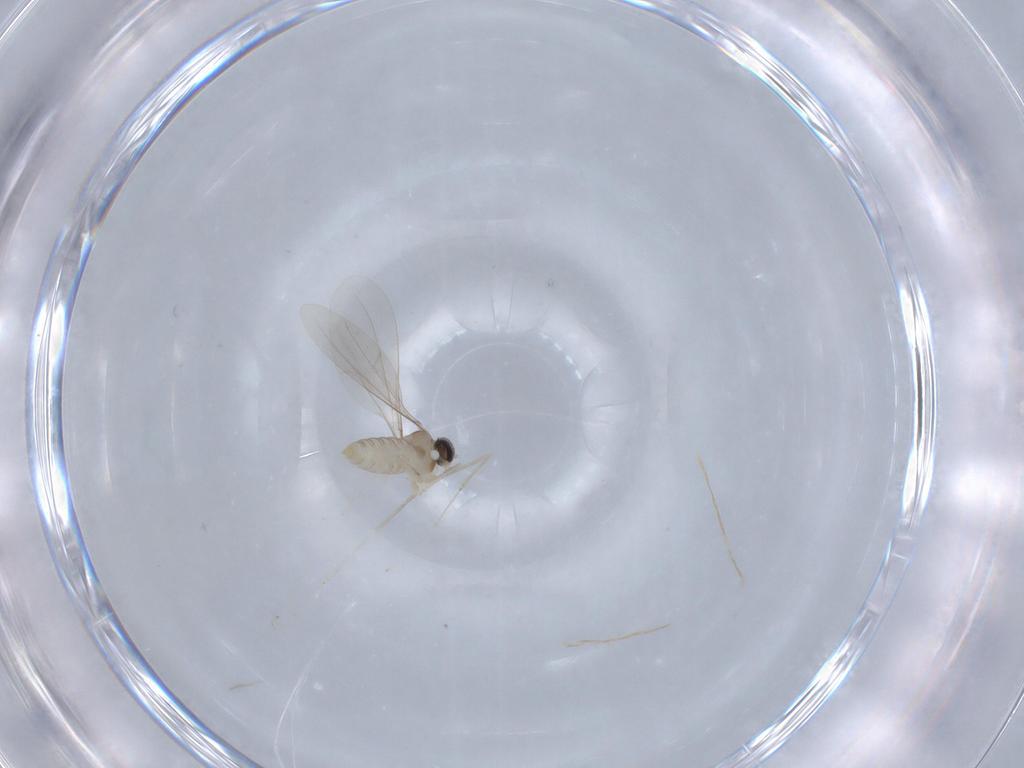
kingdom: Animalia
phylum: Arthropoda
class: Insecta
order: Diptera
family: Cecidomyiidae
